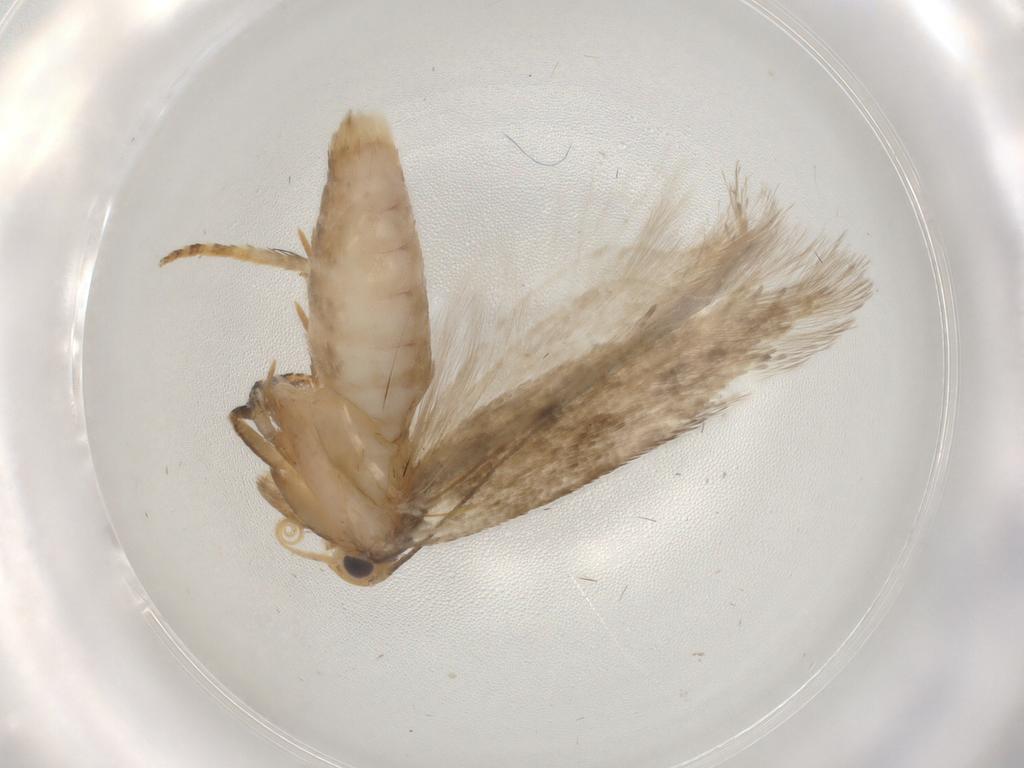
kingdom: Animalia
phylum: Arthropoda
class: Insecta
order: Lepidoptera
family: Gelechiidae
